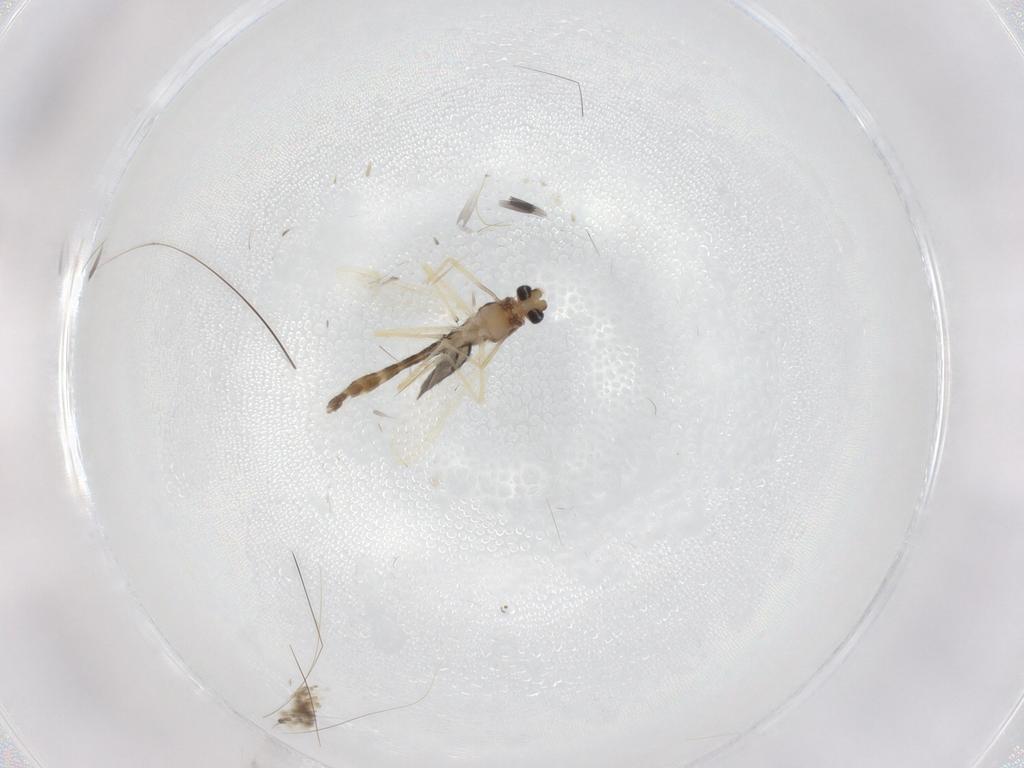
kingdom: Animalia
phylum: Arthropoda
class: Insecta
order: Diptera
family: Chironomidae
